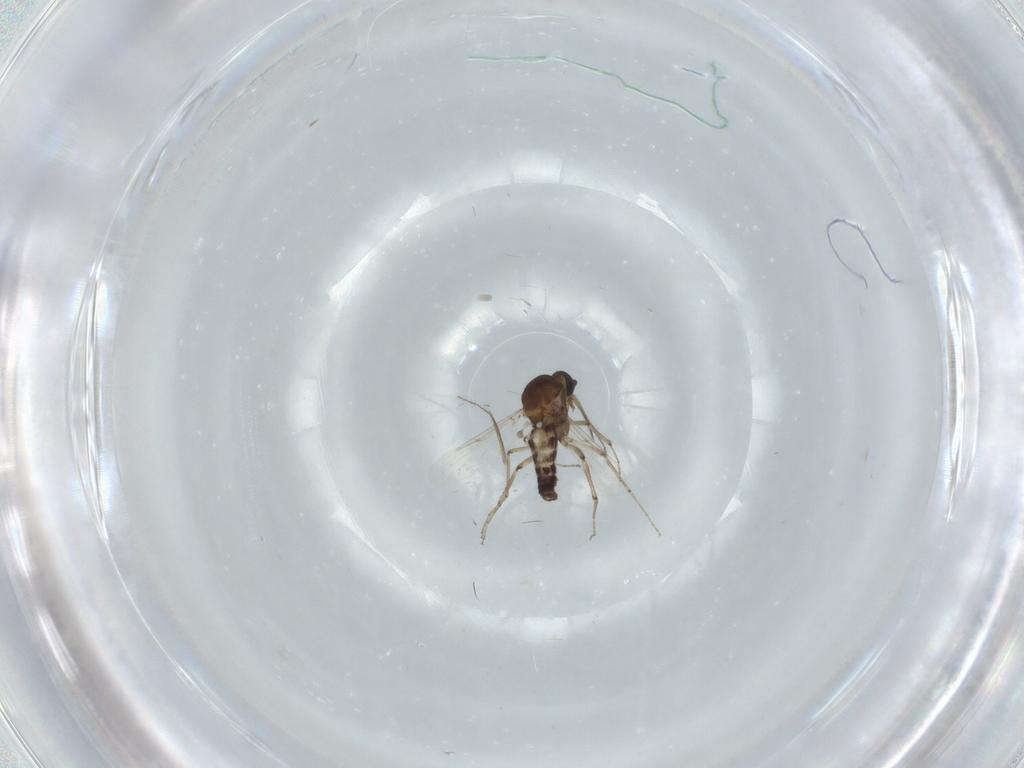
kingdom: Animalia
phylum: Arthropoda
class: Insecta
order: Diptera
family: Ceratopogonidae
